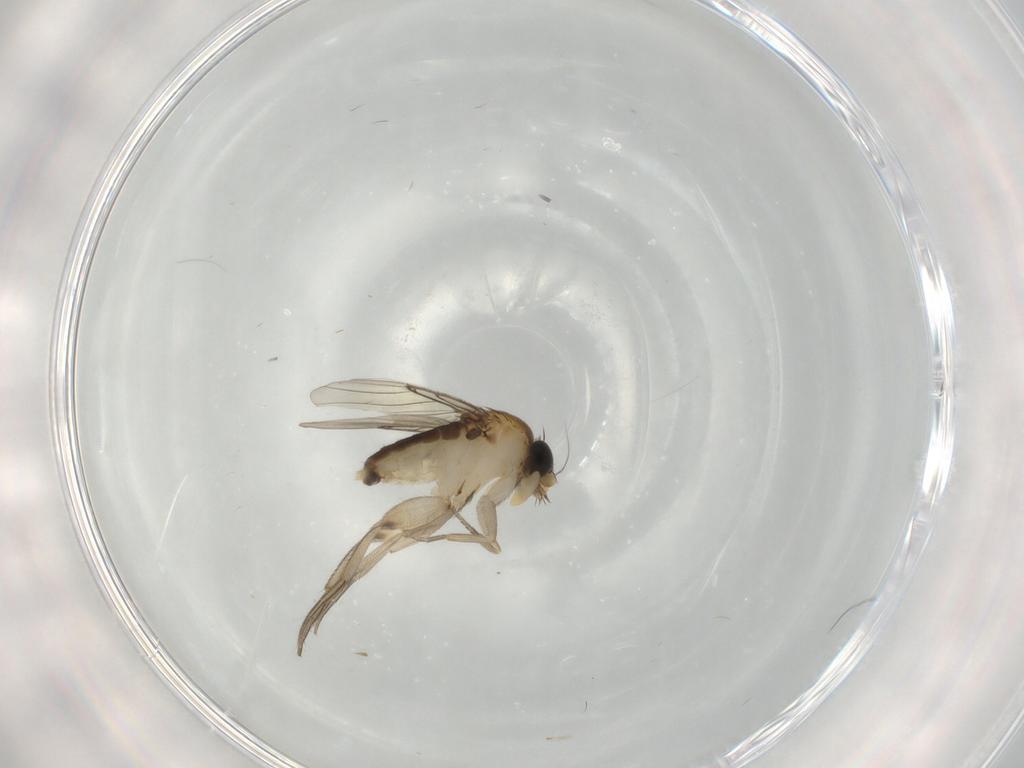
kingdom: Animalia
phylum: Arthropoda
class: Insecta
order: Diptera
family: Phoridae
